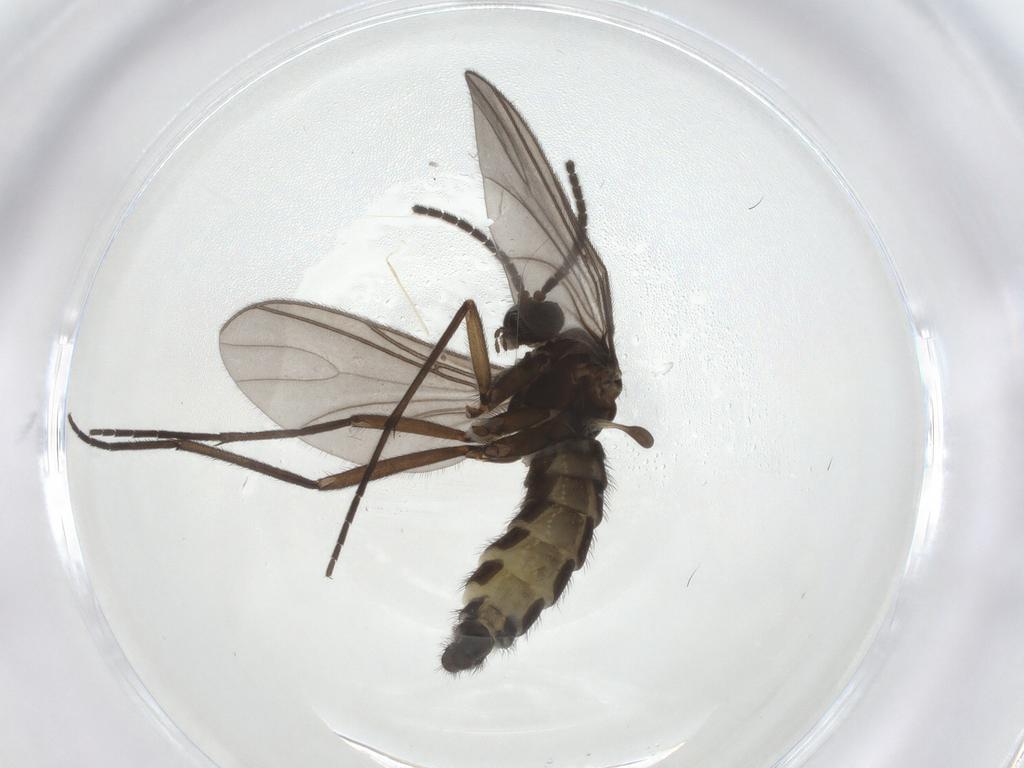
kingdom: Animalia
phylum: Arthropoda
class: Insecta
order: Diptera
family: Sciaridae
